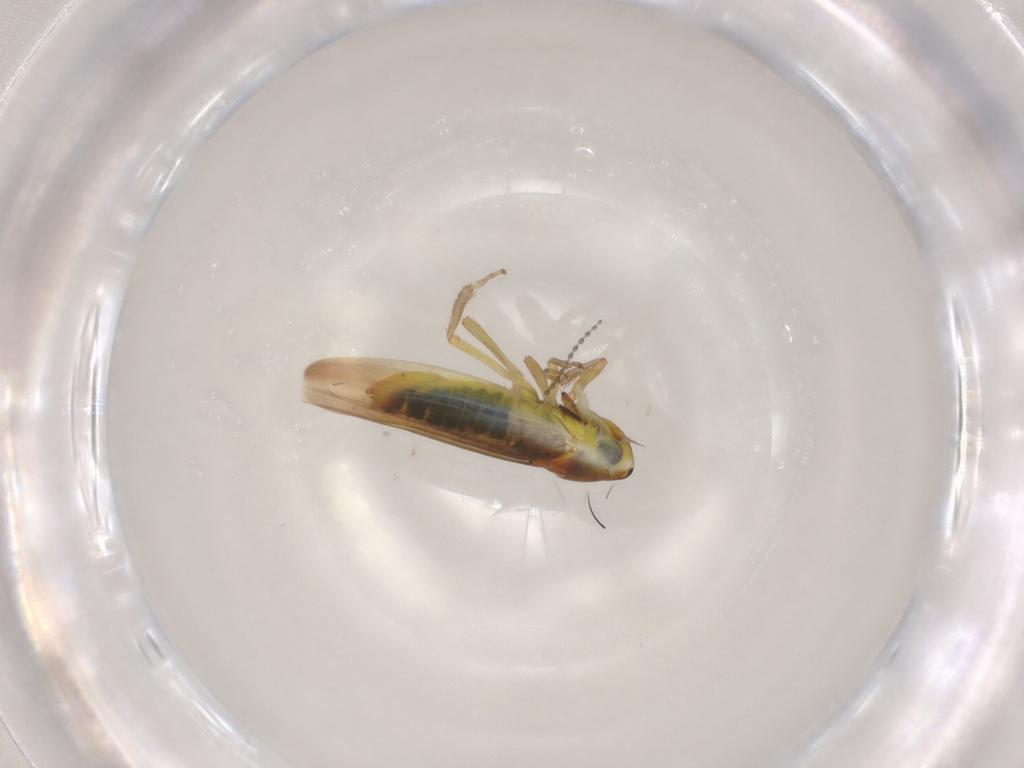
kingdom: Animalia
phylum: Arthropoda
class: Insecta
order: Hemiptera
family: Cicadellidae
